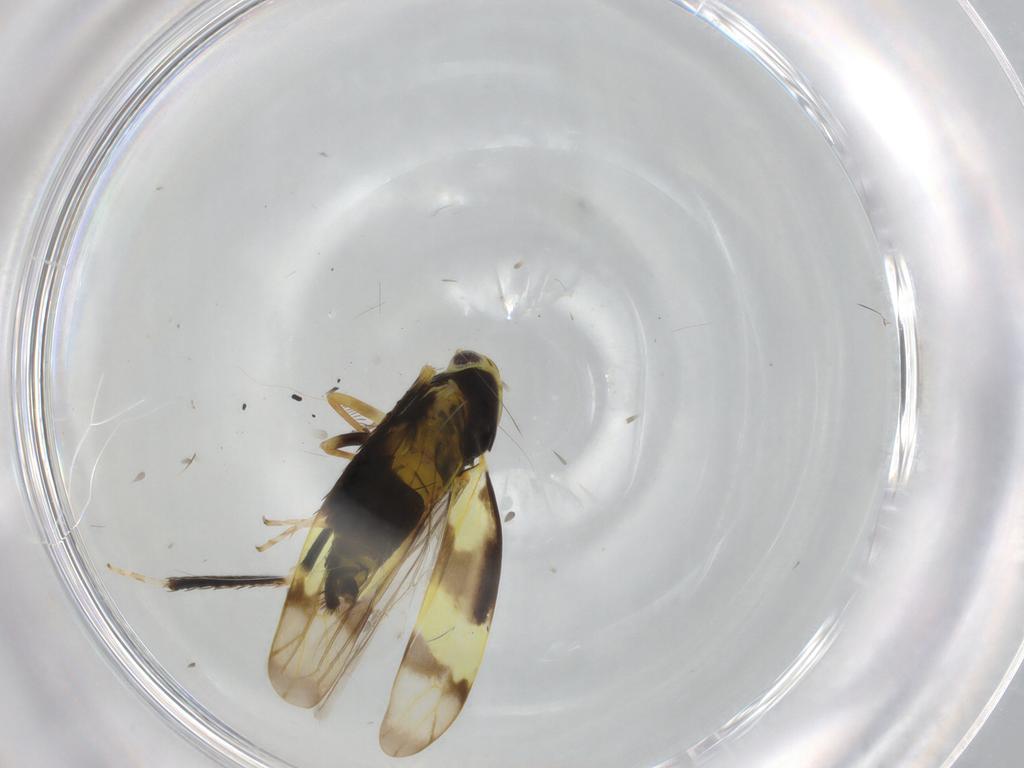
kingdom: Animalia
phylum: Arthropoda
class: Insecta
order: Hemiptera
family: Cicadellidae
